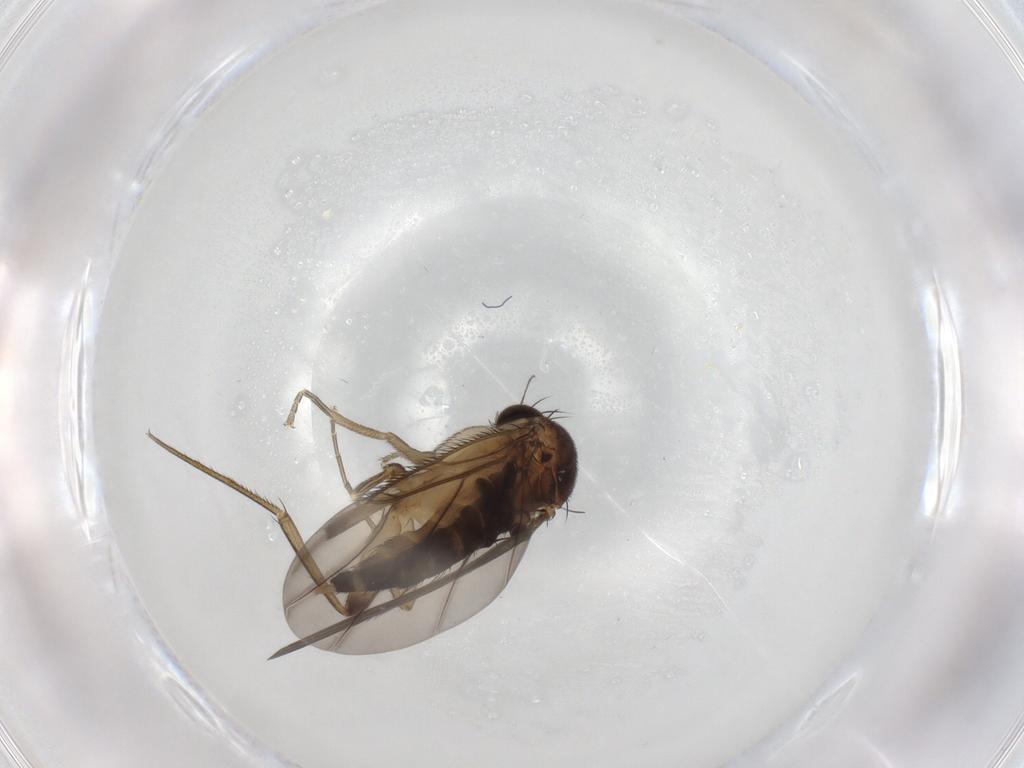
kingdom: Animalia
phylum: Arthropoda
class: Insecta
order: Diptera
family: Phoridae
